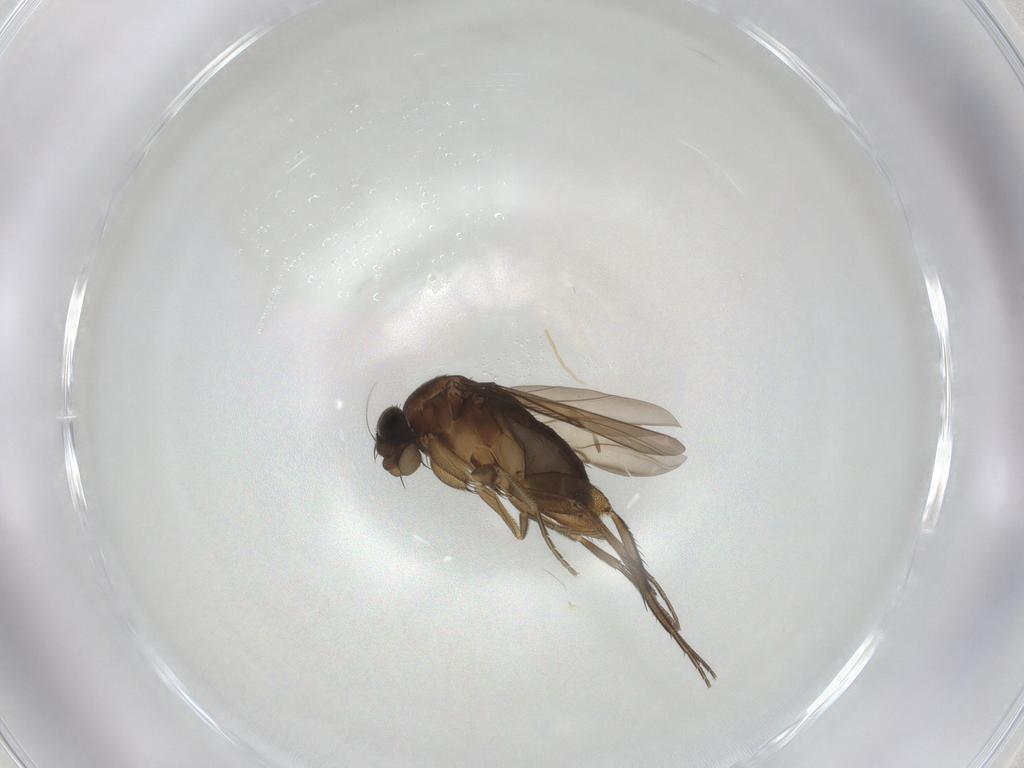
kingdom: Animalia
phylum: Arthropoda
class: Insecta
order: Diptera
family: Phoridae
